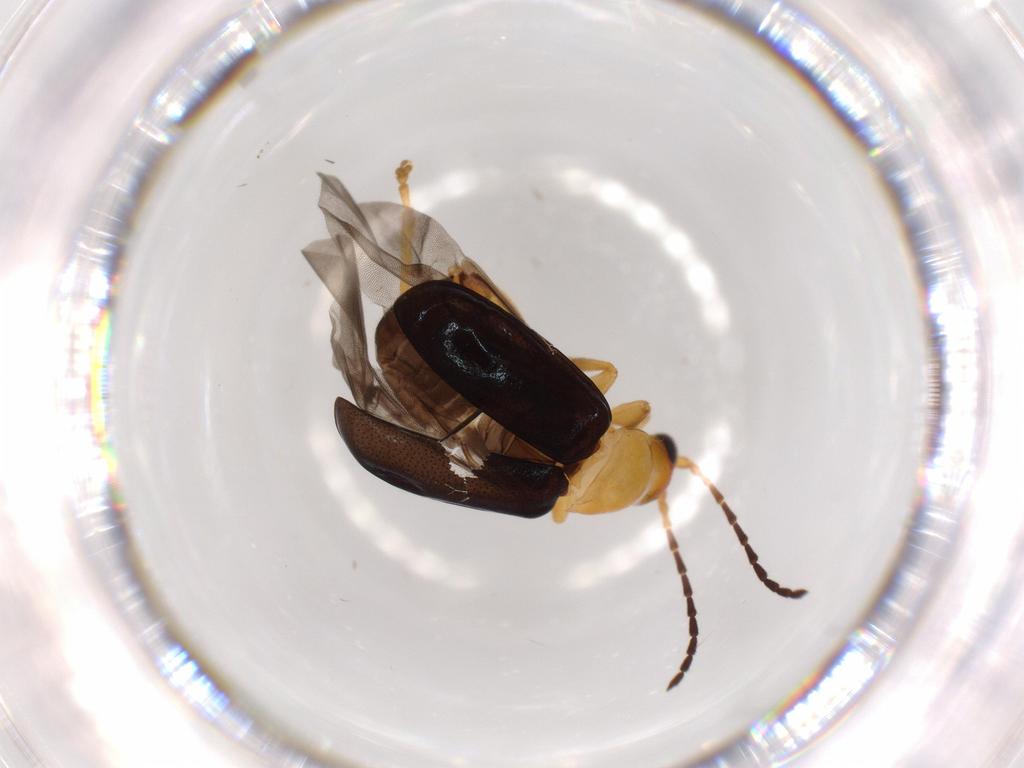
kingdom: Animalia
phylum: Arthropoda
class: Insecta
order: Coleoptera
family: Chrysomelidae
